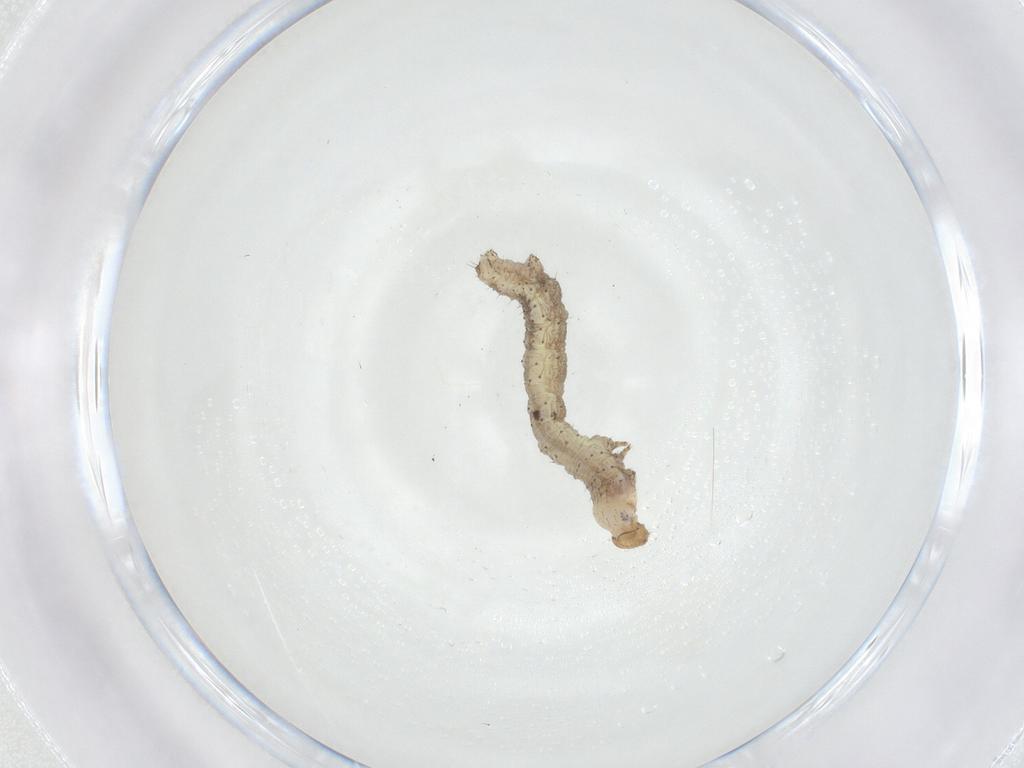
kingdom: Animalia
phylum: Arthropoda
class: Insecta
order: Lepidoptera
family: Geometridae
